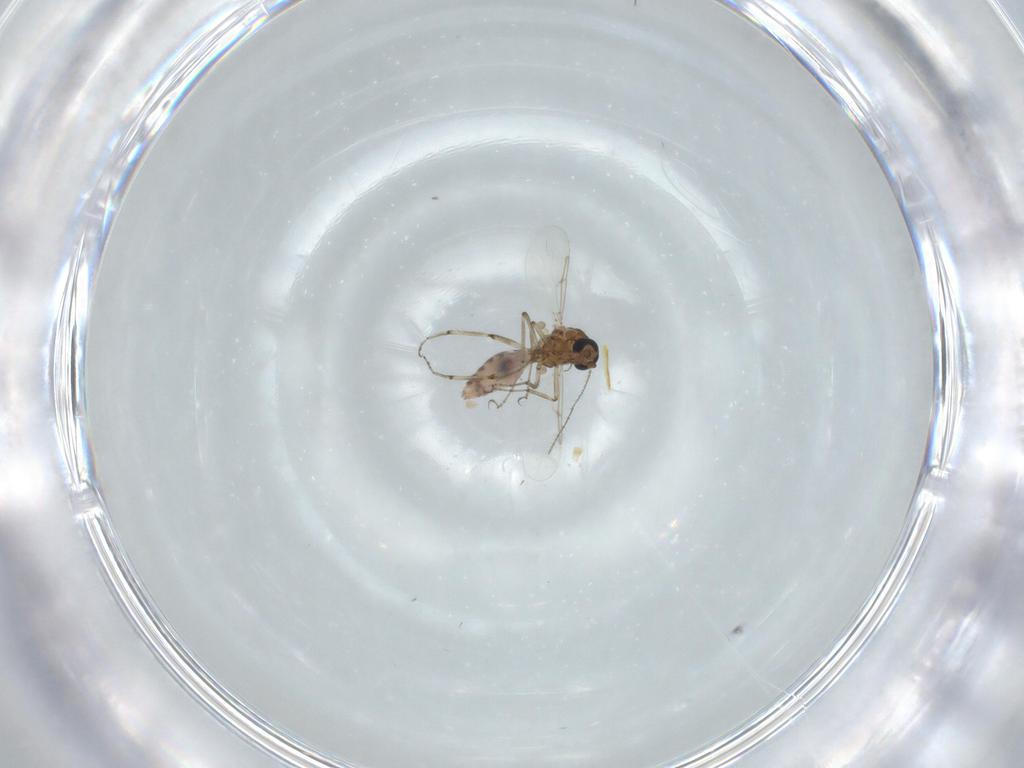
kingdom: Animalia
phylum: Arthropoda
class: Insecta
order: Diptera
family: Ceratopogonidae
